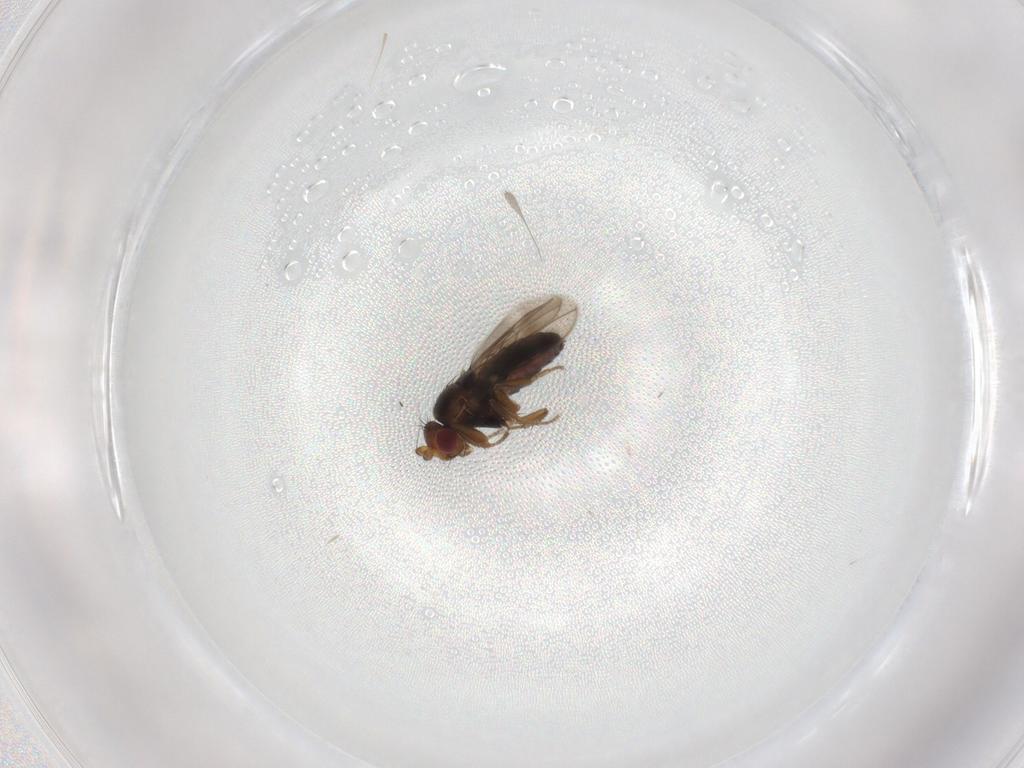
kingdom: Animalia
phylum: Arthropoda
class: Insecta
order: Diptera
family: Sphaeroceridae
